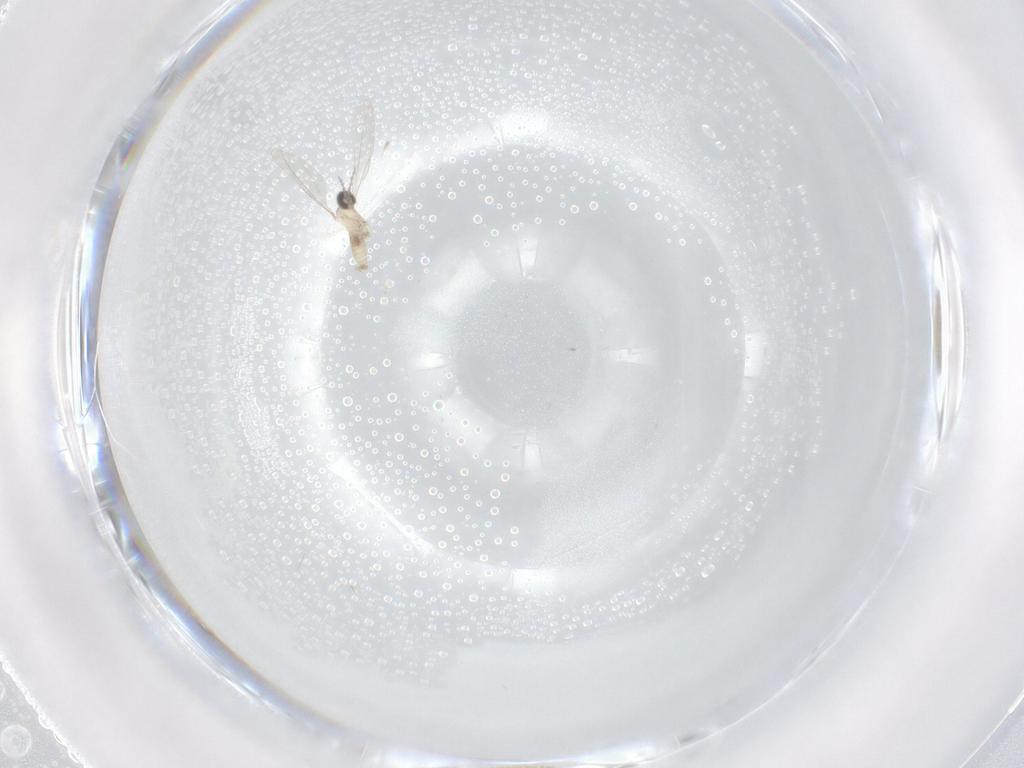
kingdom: Animalia
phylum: Arthropoda
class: Insecta
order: Diptera
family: Cecidomyiidae
